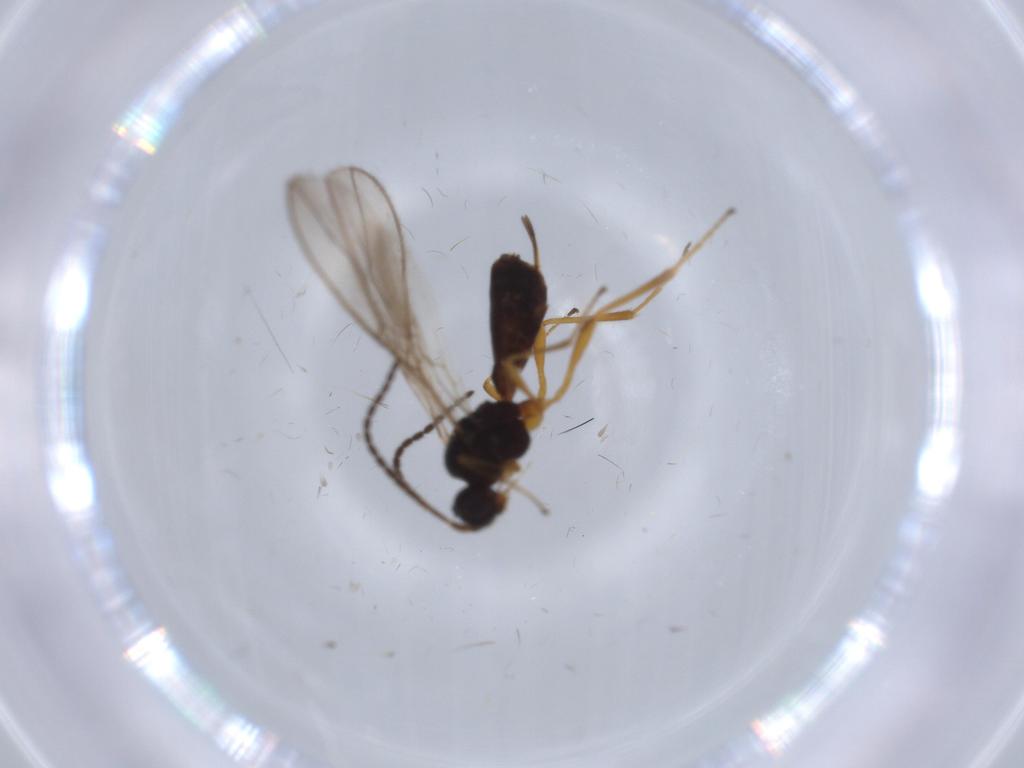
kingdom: Animalia
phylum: Arthropoda
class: Insecta
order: Hymenoptera
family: Braconidae
